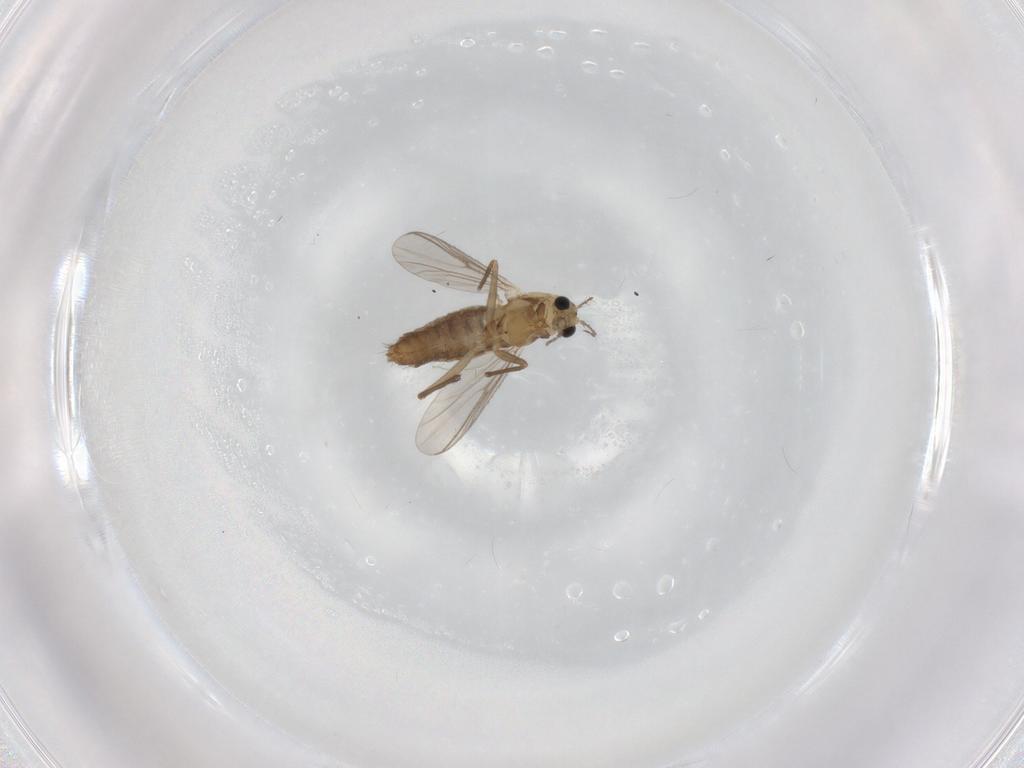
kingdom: Animalia
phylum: Arthropoda
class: Insecta
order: Diptera
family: Chironomidae
